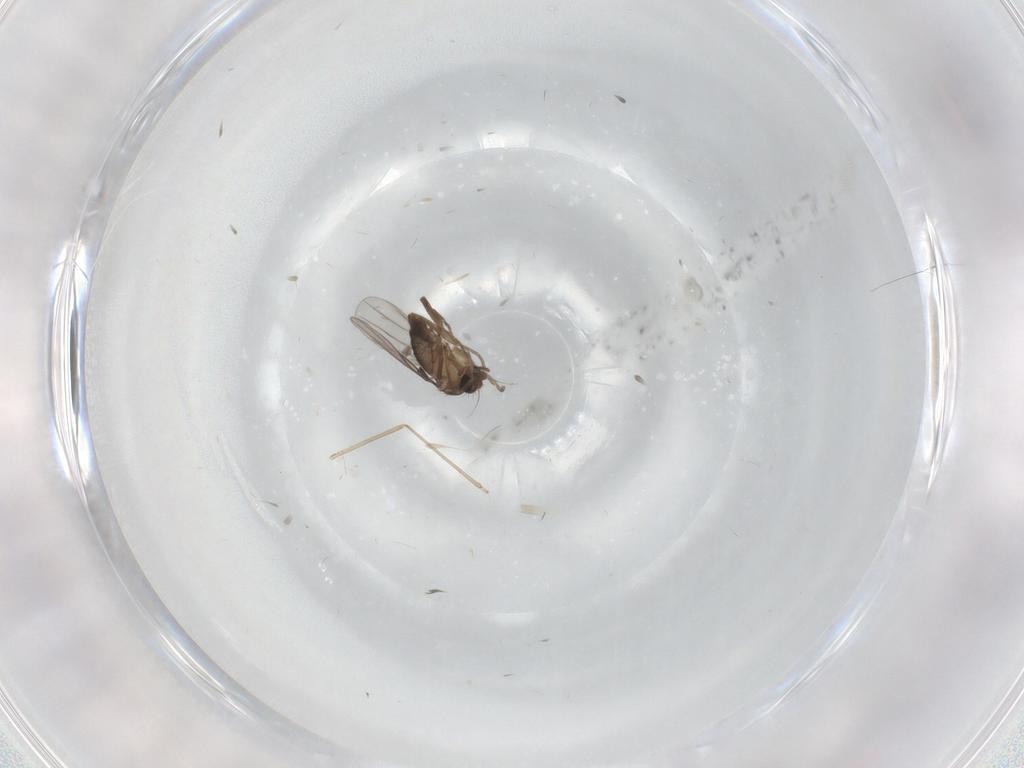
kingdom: Animalia
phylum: Arthropoda
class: Insecta
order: Diptera
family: Cecidomyiidae
